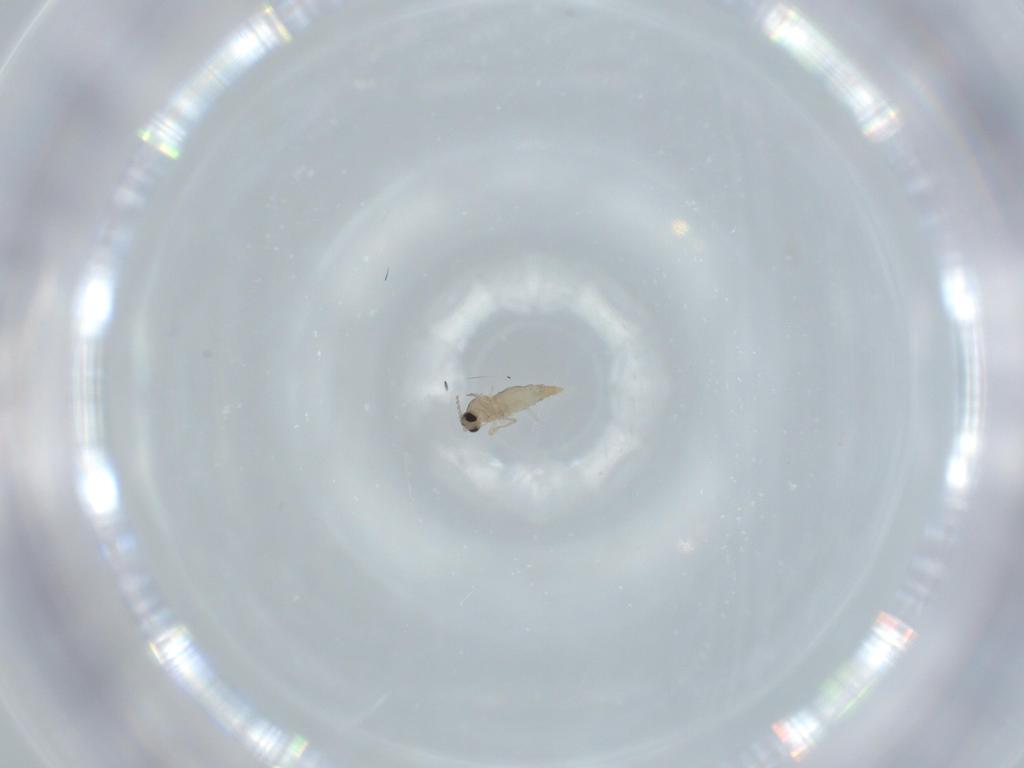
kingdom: Animalia
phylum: Arthropoda
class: Insecta
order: Diptera
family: Cecidomyiidae
